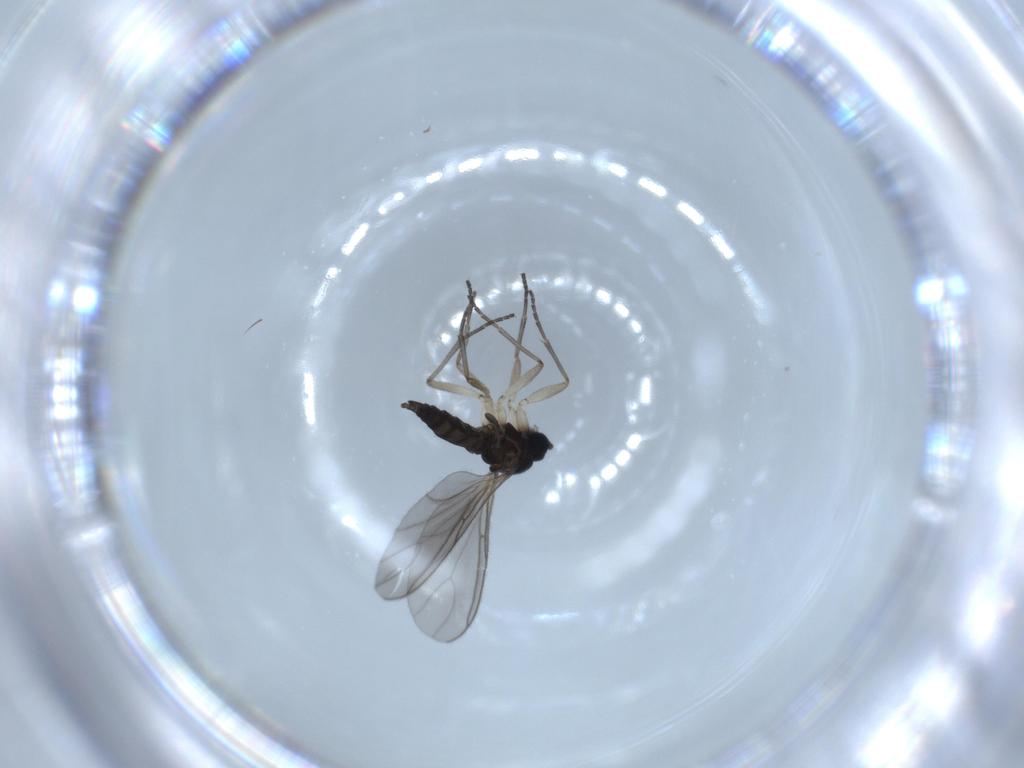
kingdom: Animalia
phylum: Arthropoda
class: Insecta
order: Diptera
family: Sciaridae
